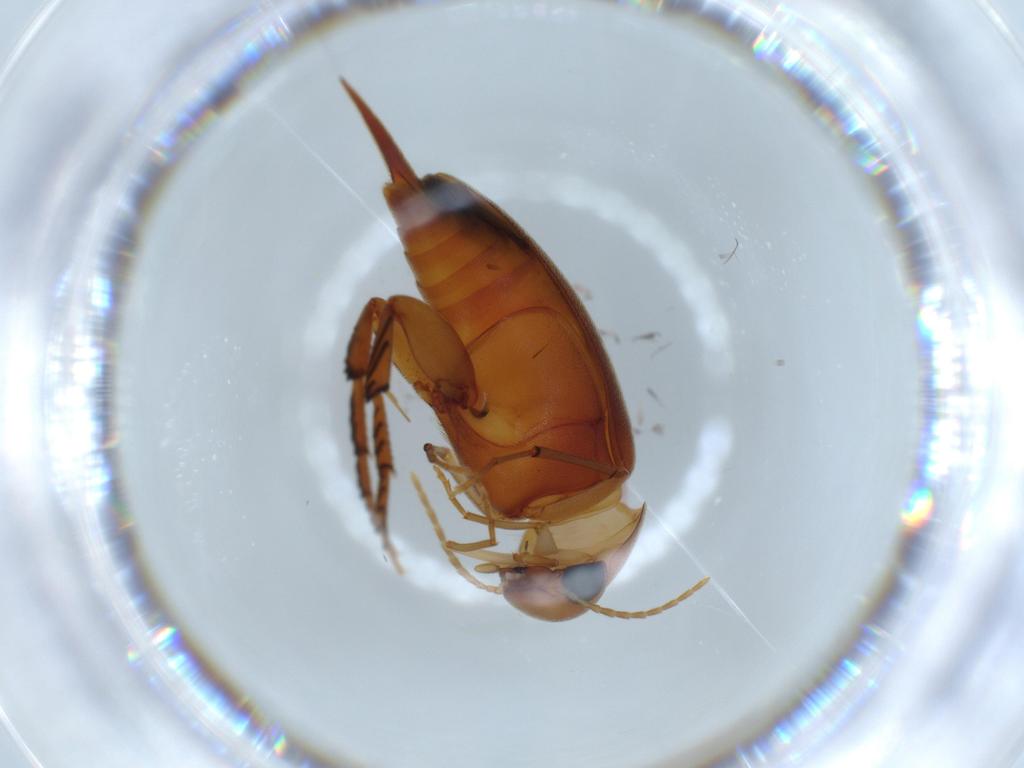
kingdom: Animalia
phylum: Arthropoda
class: Insecta
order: Coleoptera
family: Mordellidae
